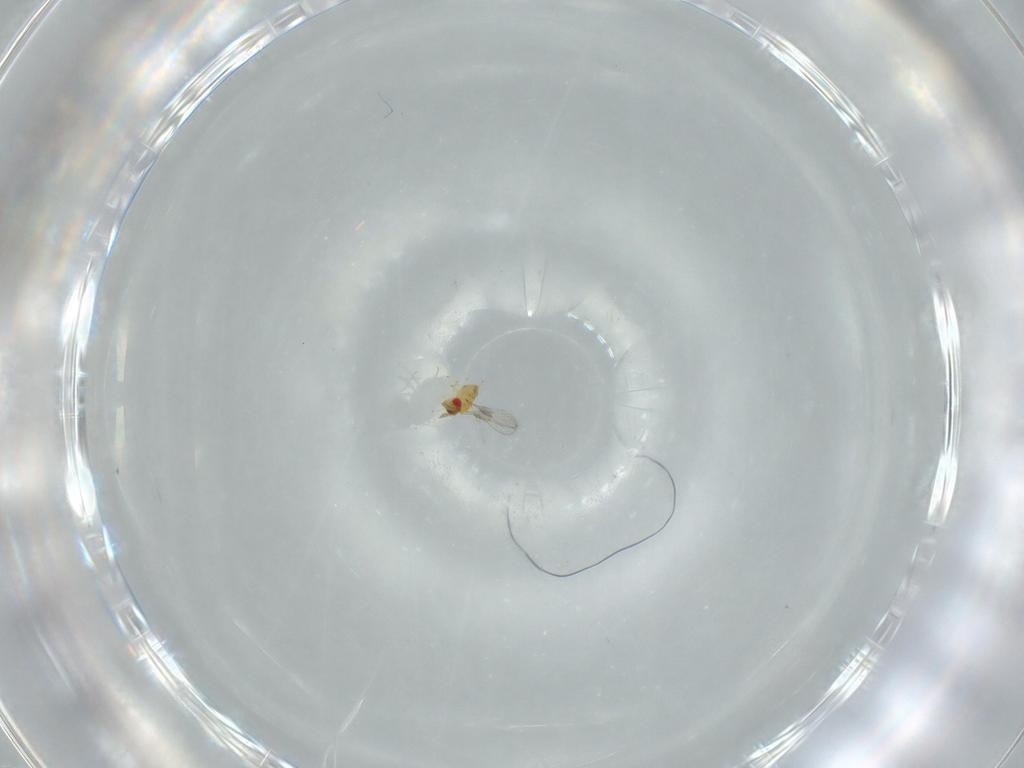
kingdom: Animalia
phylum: Arthropoda
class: Insecta
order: Hymenoptera
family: Trichogrammatidae
